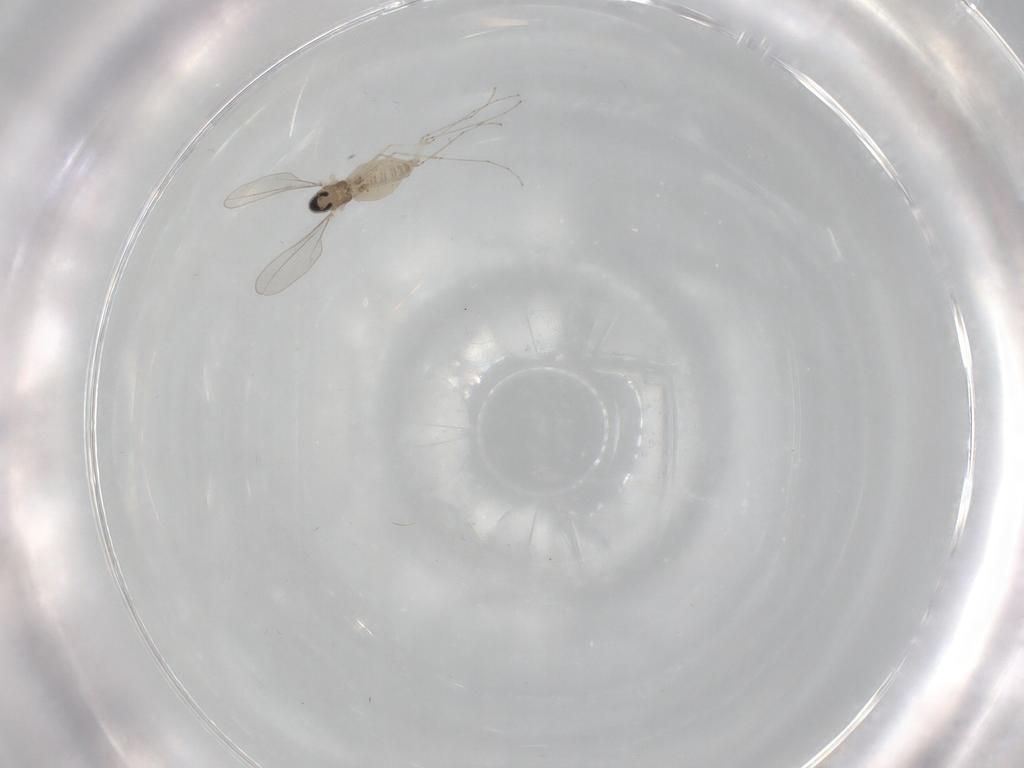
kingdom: Animalia
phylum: Arthropoda
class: Insecta
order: Diptera
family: Cecidomyiidae
